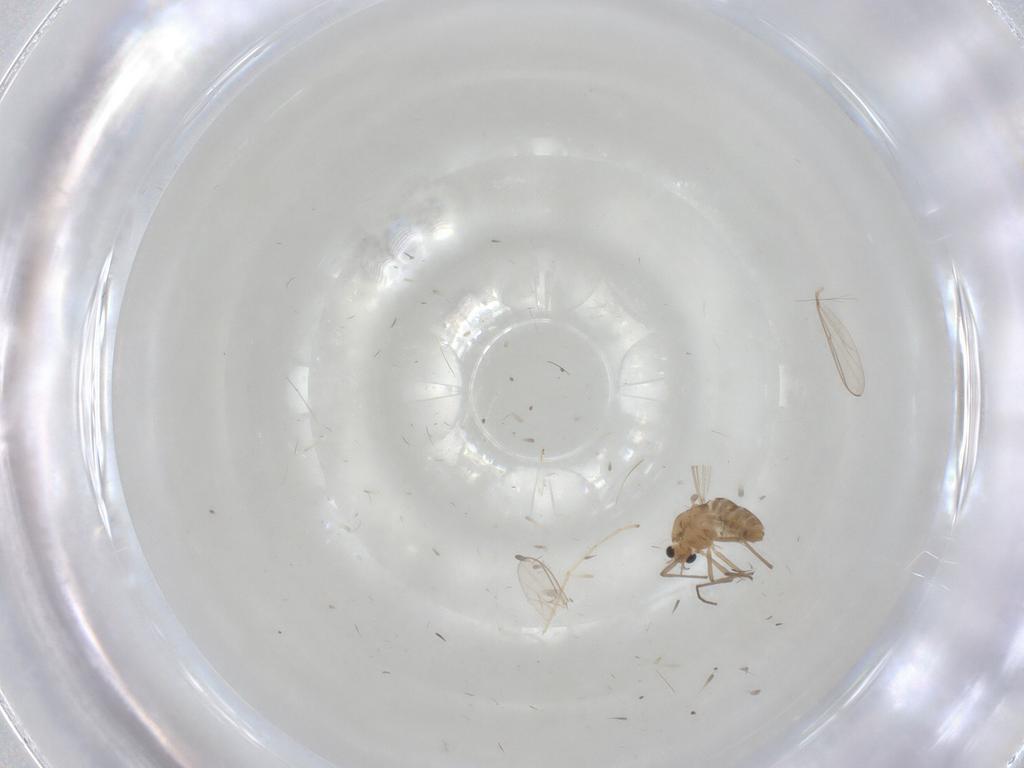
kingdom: Animalia
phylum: Arthropoda
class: Insecta
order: Diptera
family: Chironomidae
